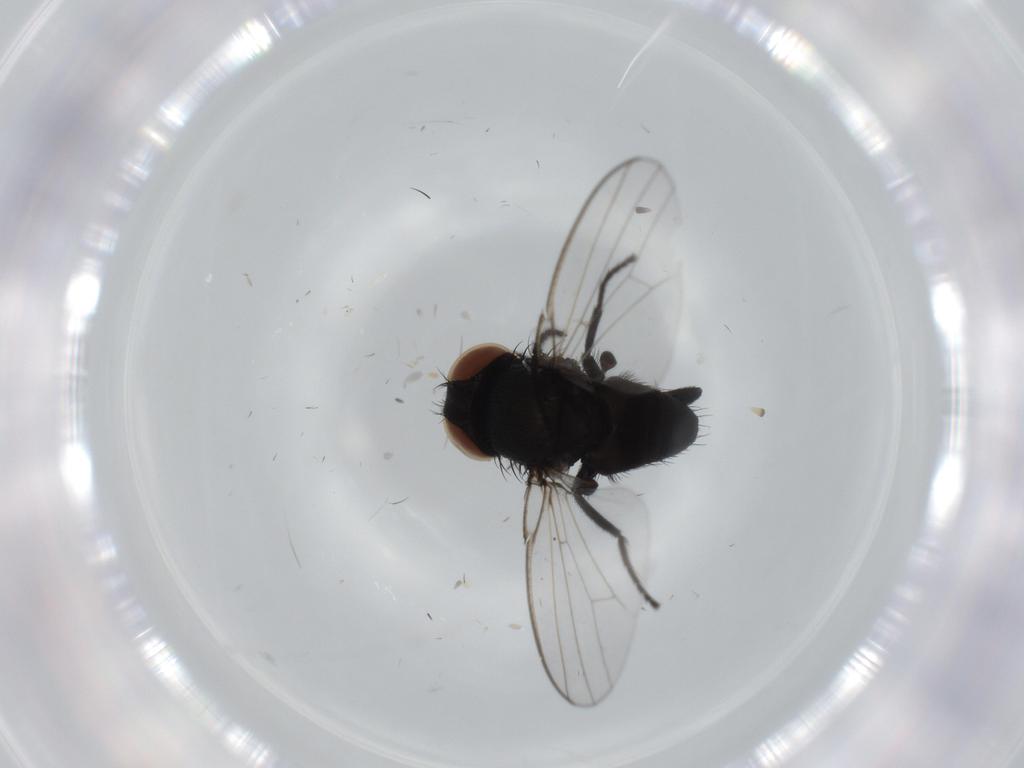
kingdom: Animalia
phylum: Arthropoda
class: Insecta
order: Diptera
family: Milichiidae
